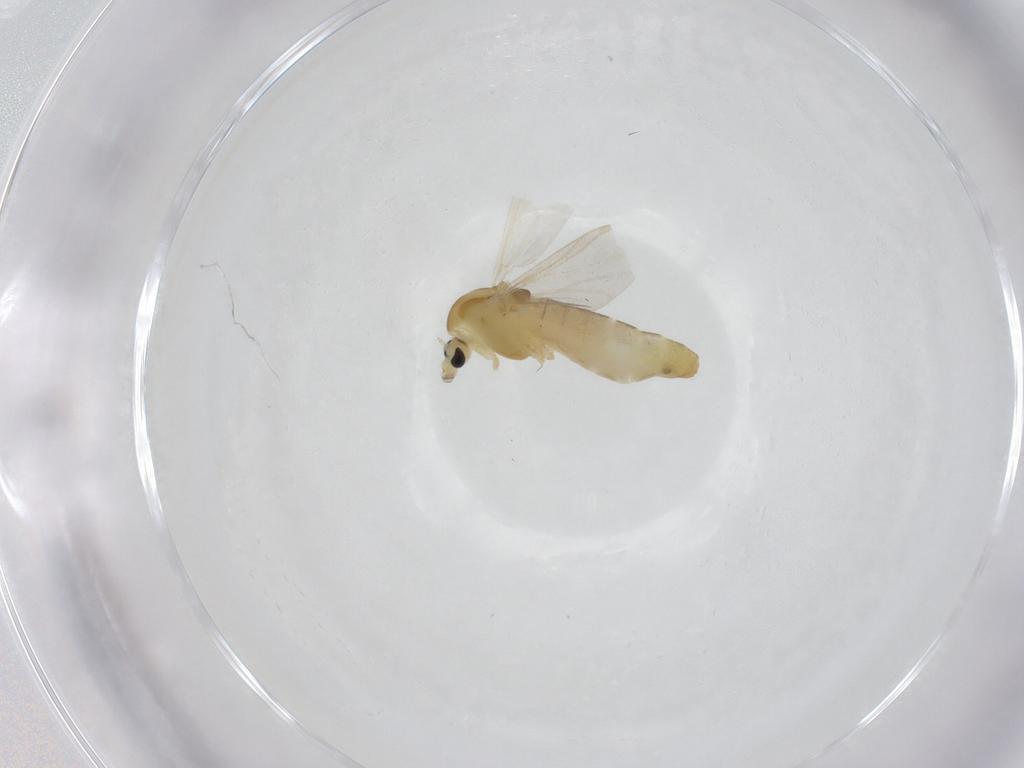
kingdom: Animalia
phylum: Arthropoda
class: Insecta
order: Diptera
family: Chironomidae
